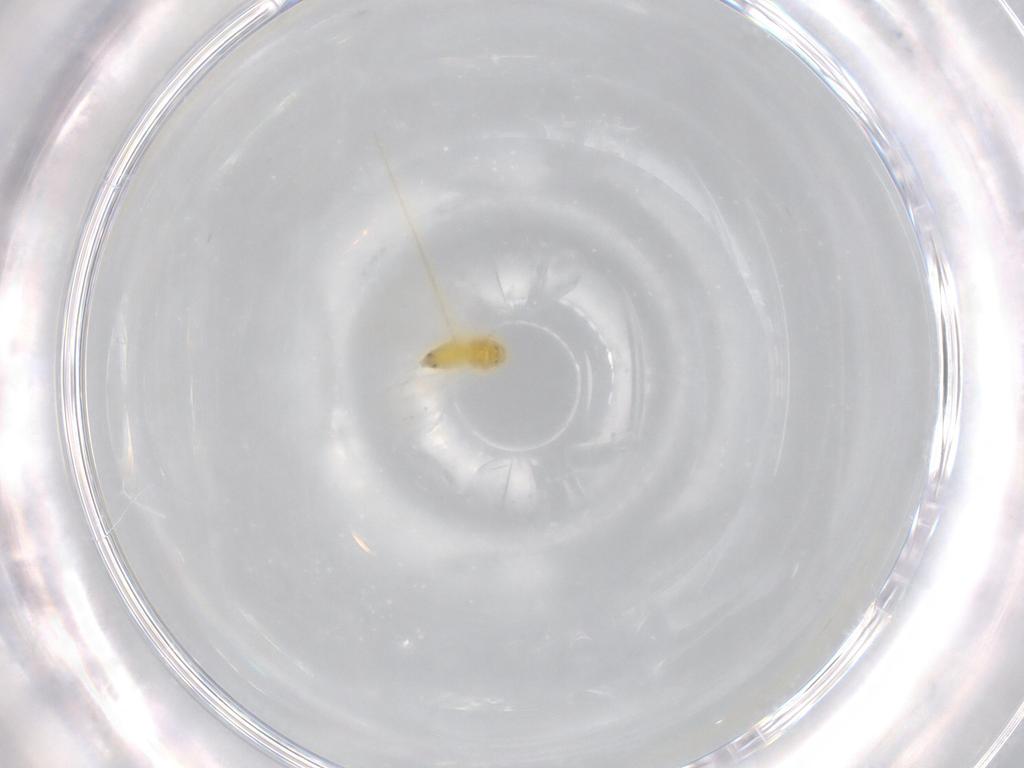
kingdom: Animalia
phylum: Arthropoda
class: Insecta
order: Hemiptera
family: Aleyrodidae
